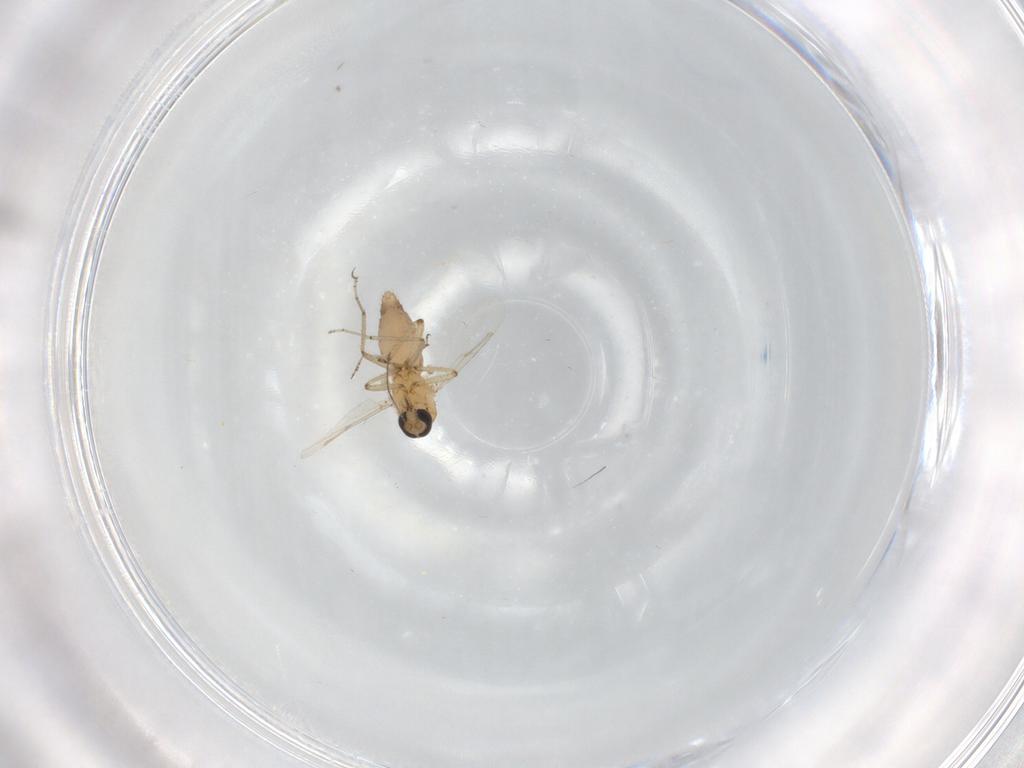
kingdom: Animalia
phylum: Arthropoda
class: Insecta
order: Diptera
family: Ceratopogonidae
